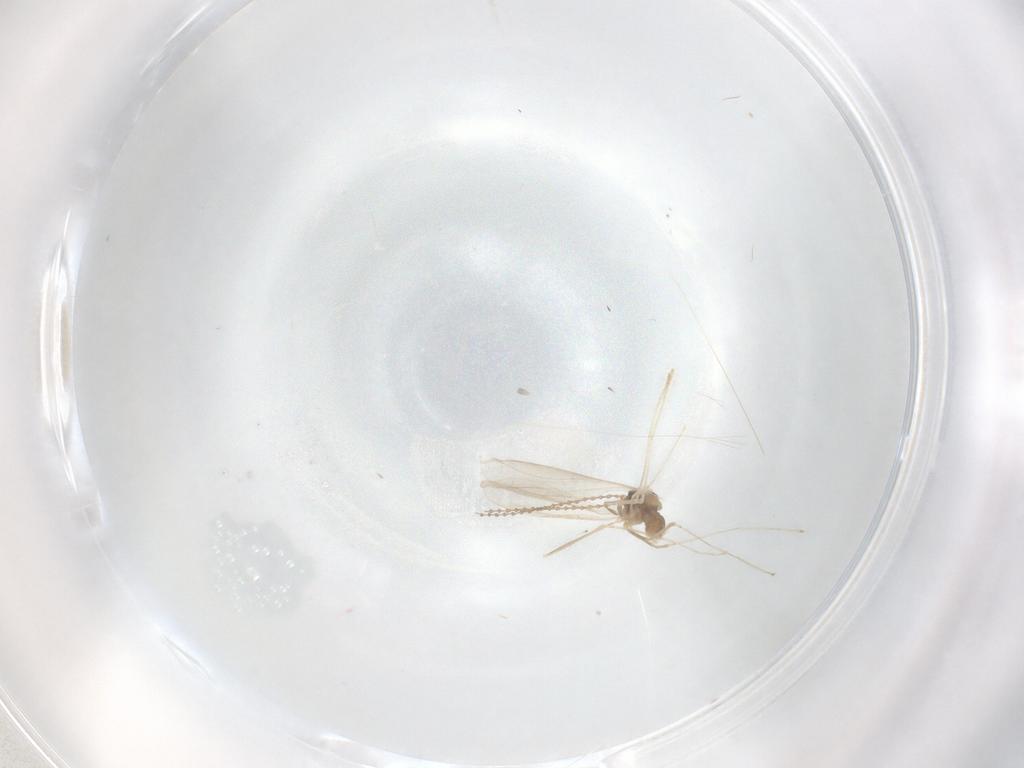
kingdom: Animalia
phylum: Arthropoda
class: Insecta
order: Diptera
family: Cecidomyiidae
